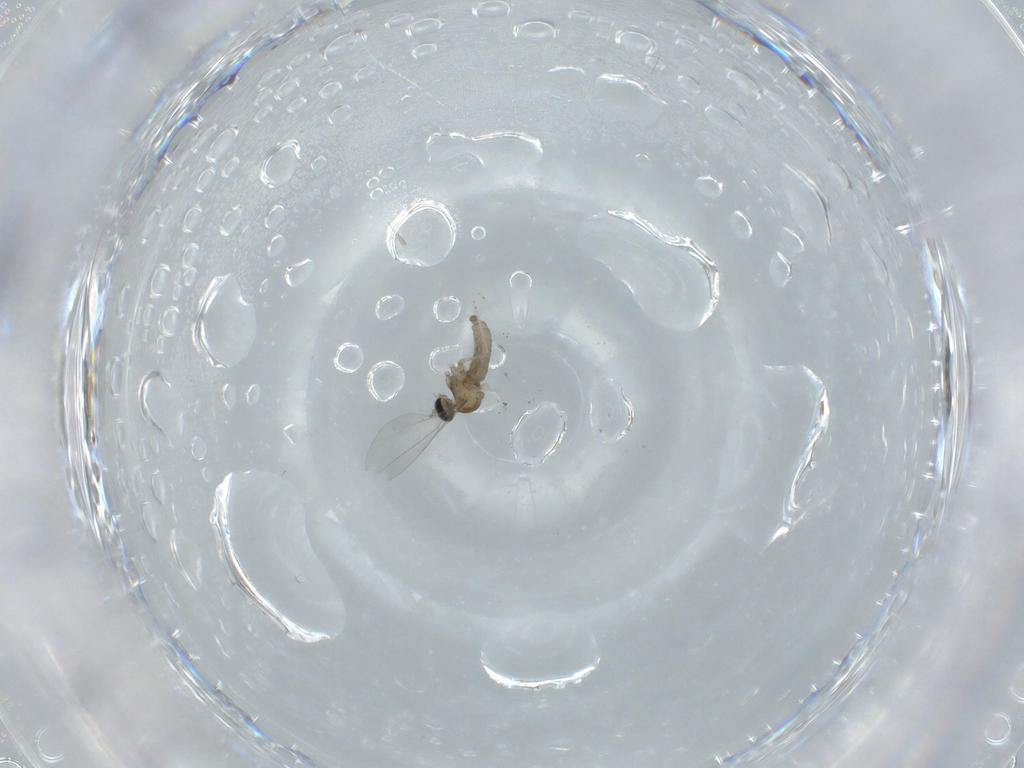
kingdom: Animalia
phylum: Arthropoda
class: Insecta
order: Diptera
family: Cecidomyiidae
